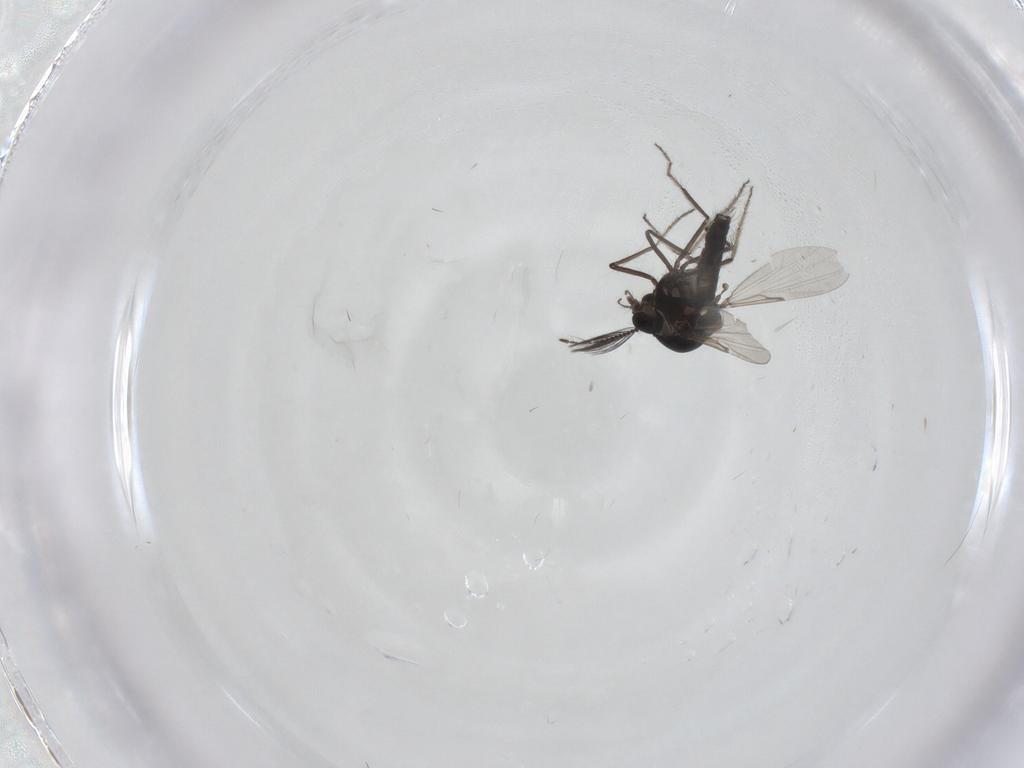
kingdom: Animalia
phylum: Arthropoda
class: Insecta
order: Diptera
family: Ceratopogonidae
